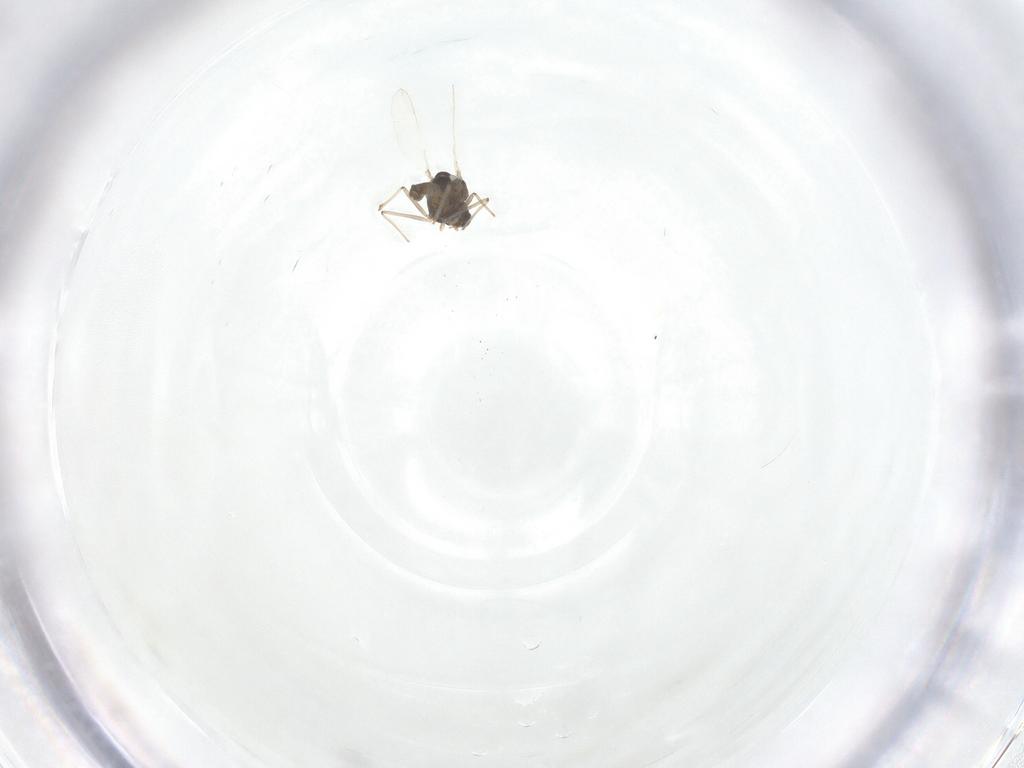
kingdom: Animalia
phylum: Arthropoda
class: Insecta
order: Diptera
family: Chironomidae
